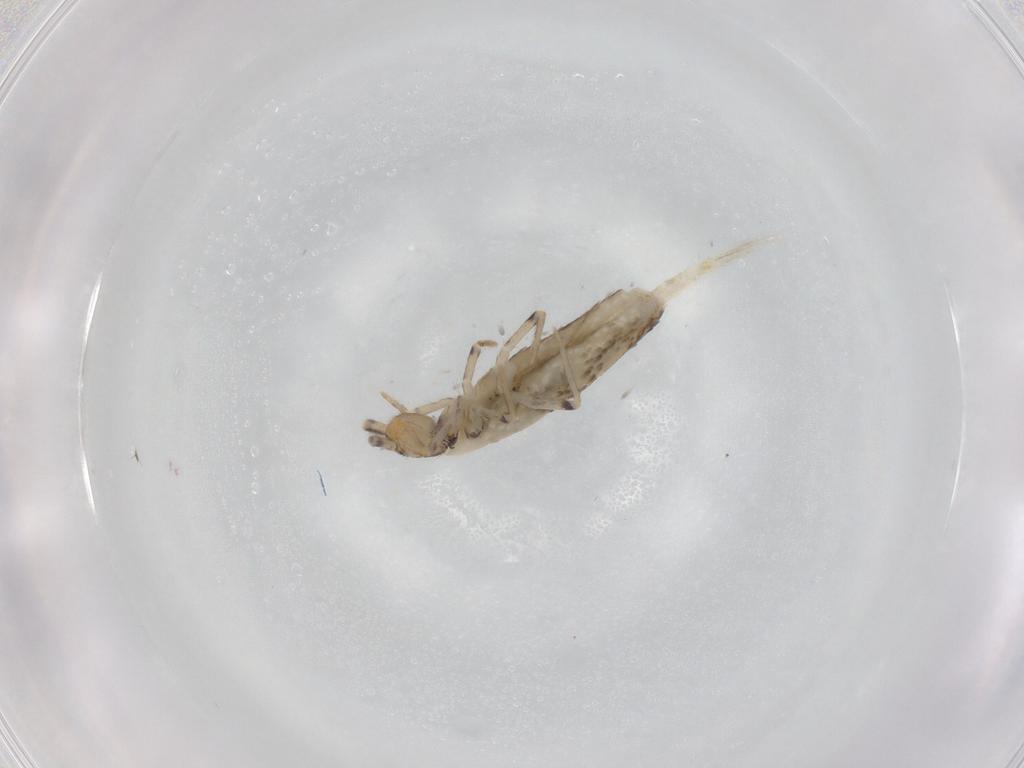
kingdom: Animalia
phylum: Arthropoda
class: Collembola
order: Entomobryomorpha
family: Entomobryidae
